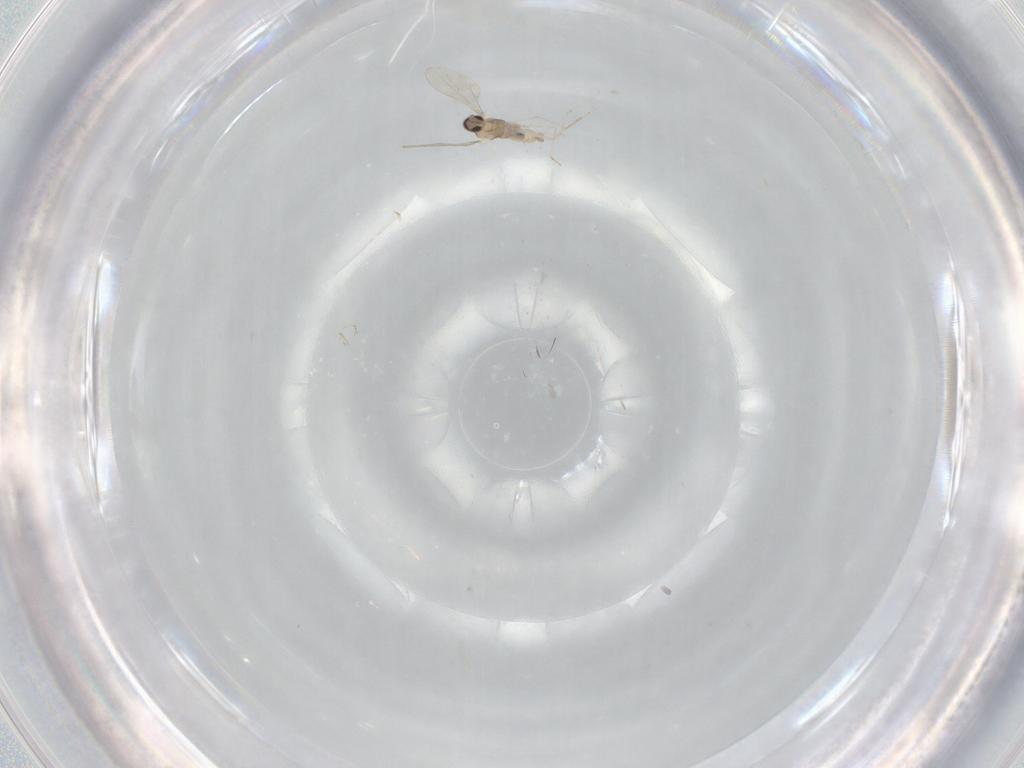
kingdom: Animalia
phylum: Arthropoda
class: Insecta
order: Diptera
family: Cecidomyiidae
